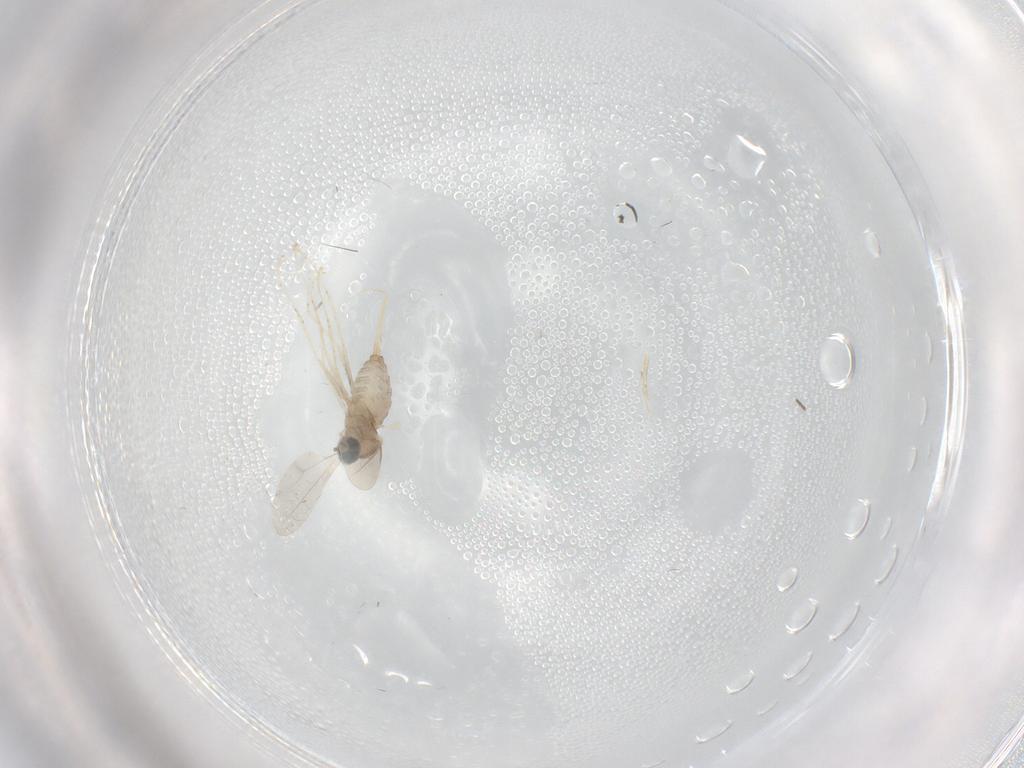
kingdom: Animalia
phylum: Arthropoda
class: Insecta
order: Diptera
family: Cecidomyiidae
